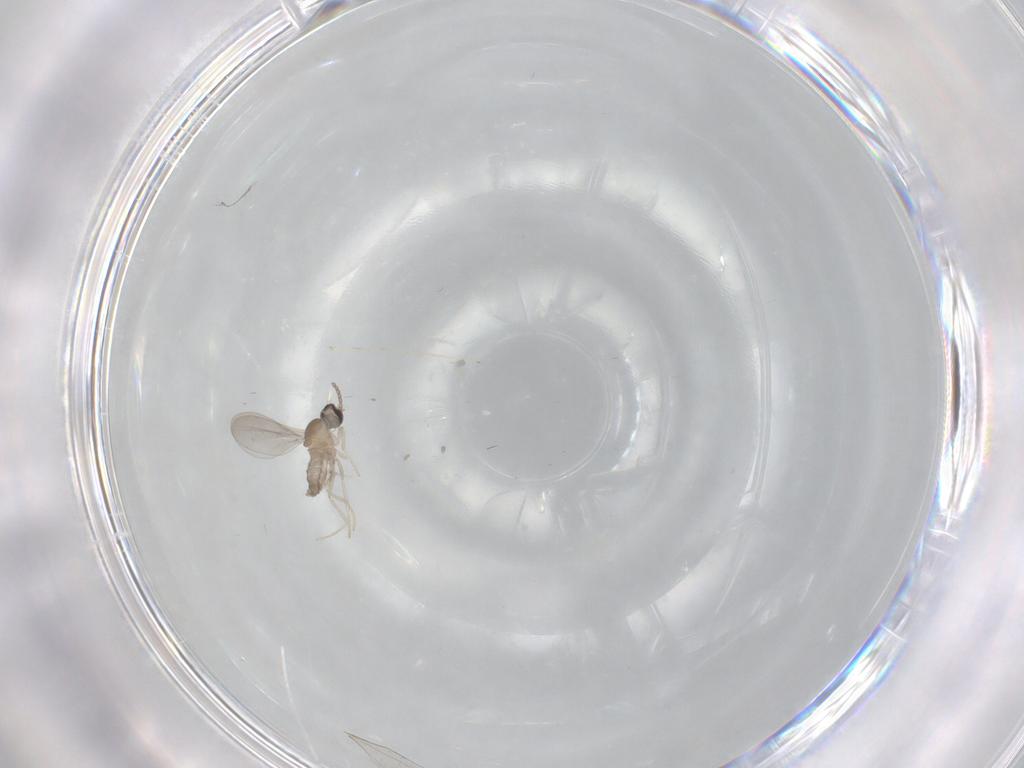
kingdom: Animalia
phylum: Arthropoda
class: Insecta
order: Diptera
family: Cecidomyiidae
